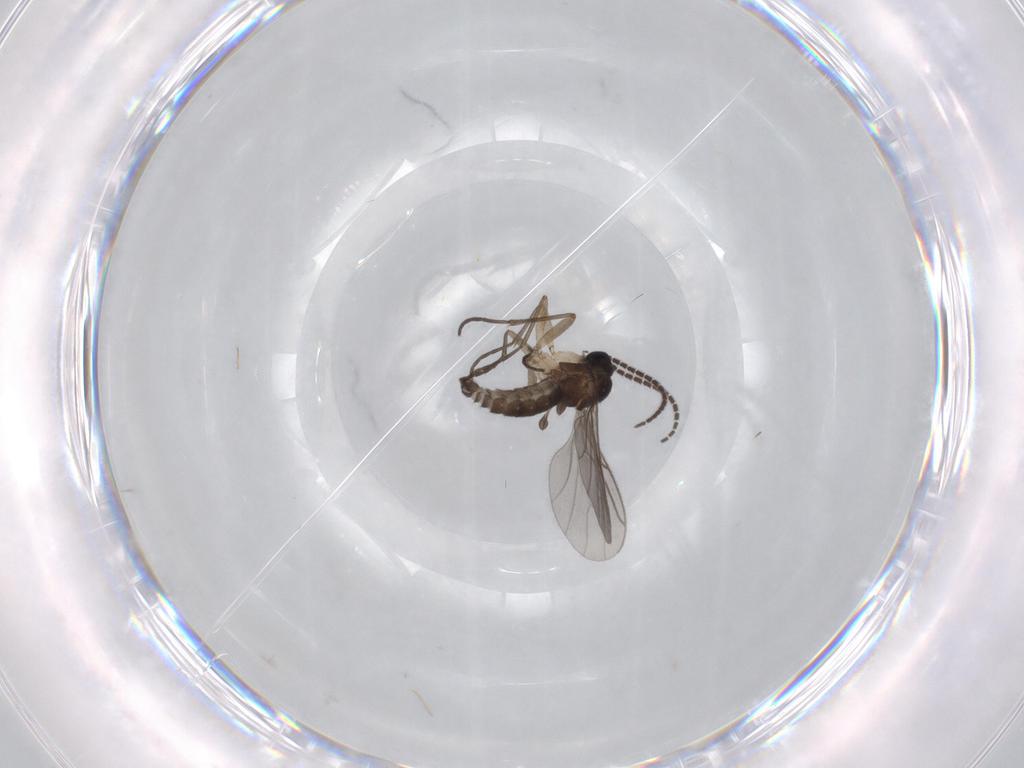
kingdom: Animalia
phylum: Arthropoda
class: Insecta
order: Diptera
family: Sciaridae
